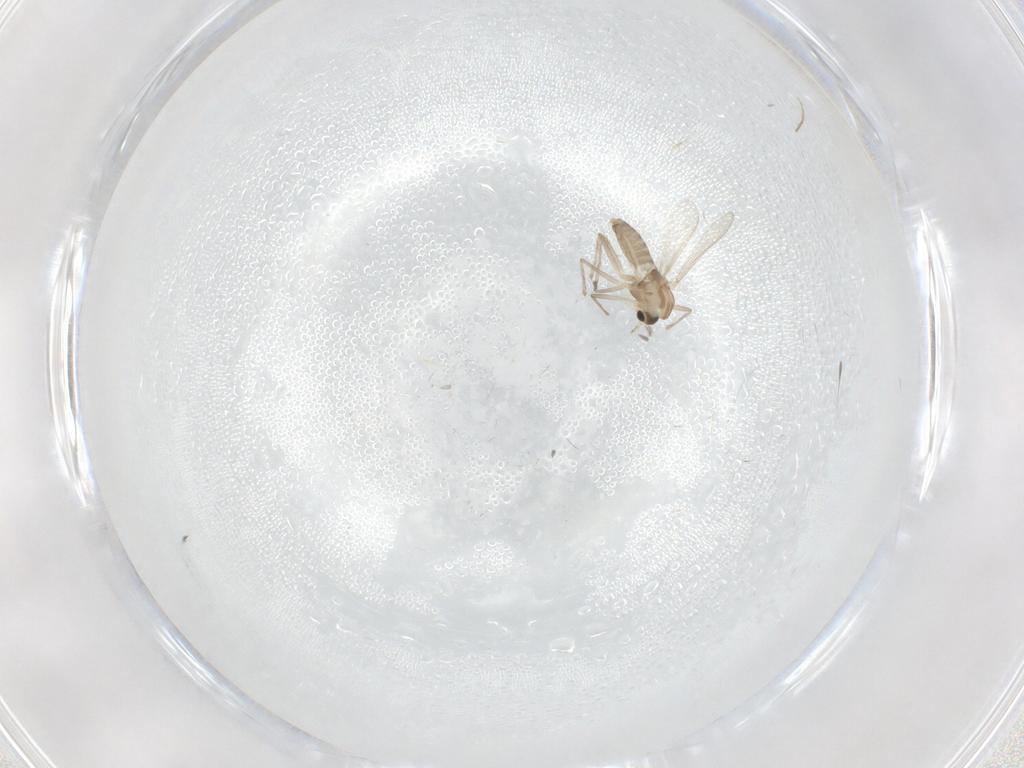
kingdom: Animalia
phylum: Arthropoda
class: Insecta
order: Diptera
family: Chironomidae
